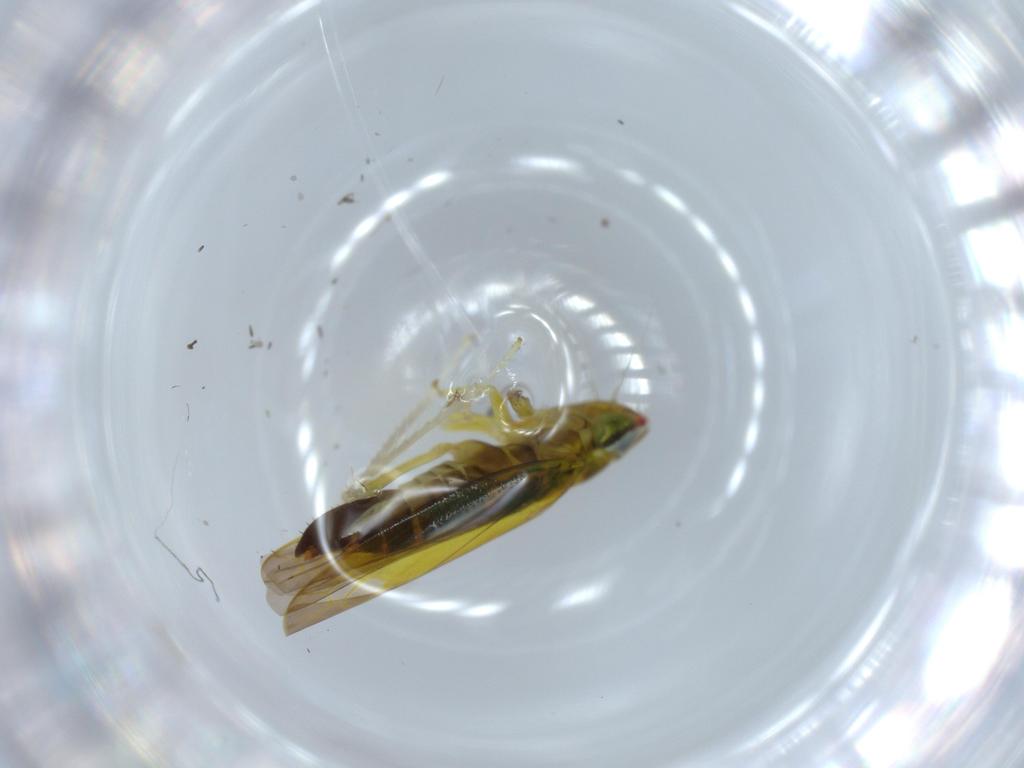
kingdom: Animalia
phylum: Arthropoda
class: Insecta
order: Hemiptera
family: Cicadellidae
